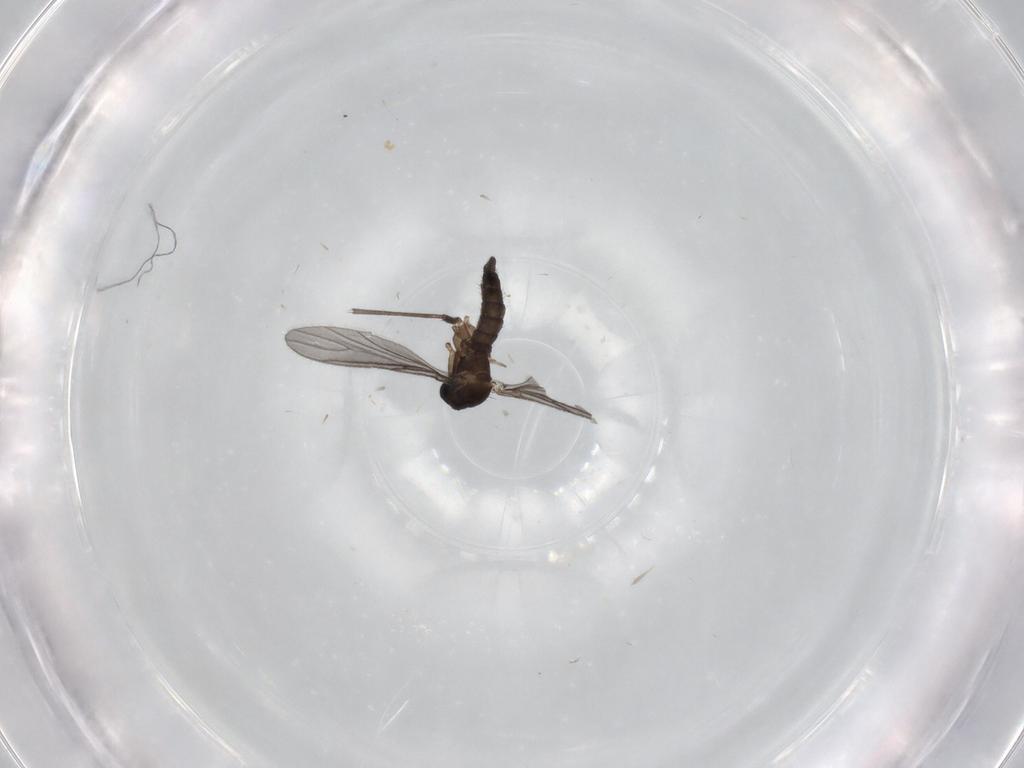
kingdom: Animalia
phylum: Arthropoda
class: Insecta
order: Diptera
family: Sciaridae
